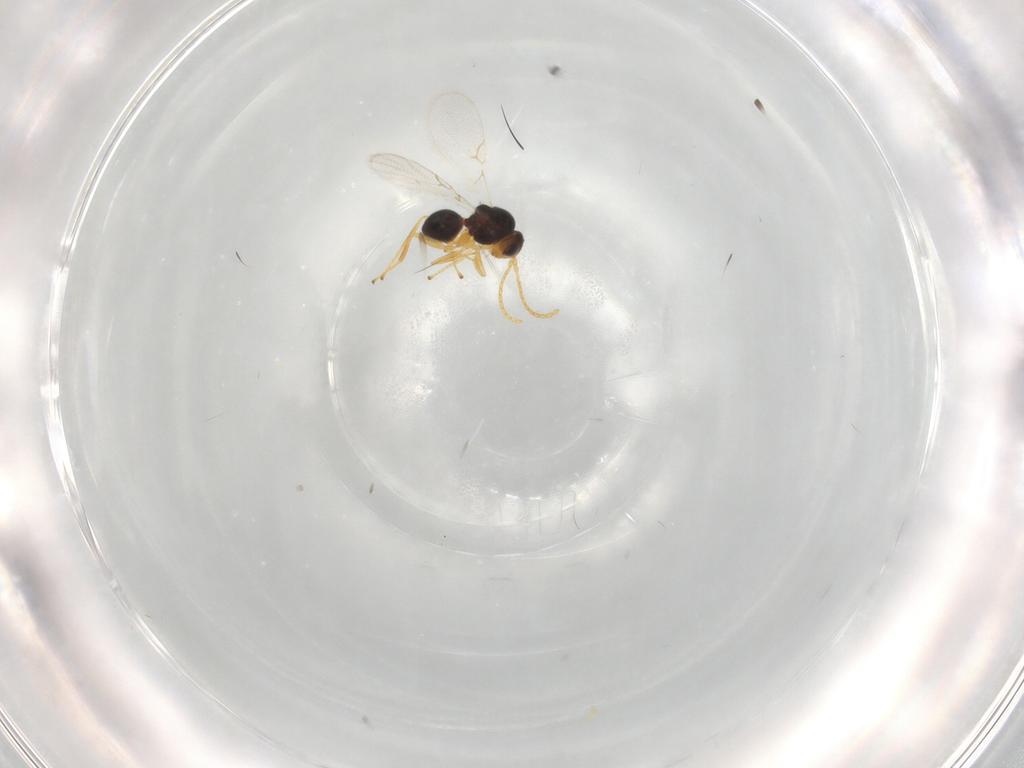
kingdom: Animalia
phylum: Arthropoda
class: Insecta
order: Hymenoptera
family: Figitidae
